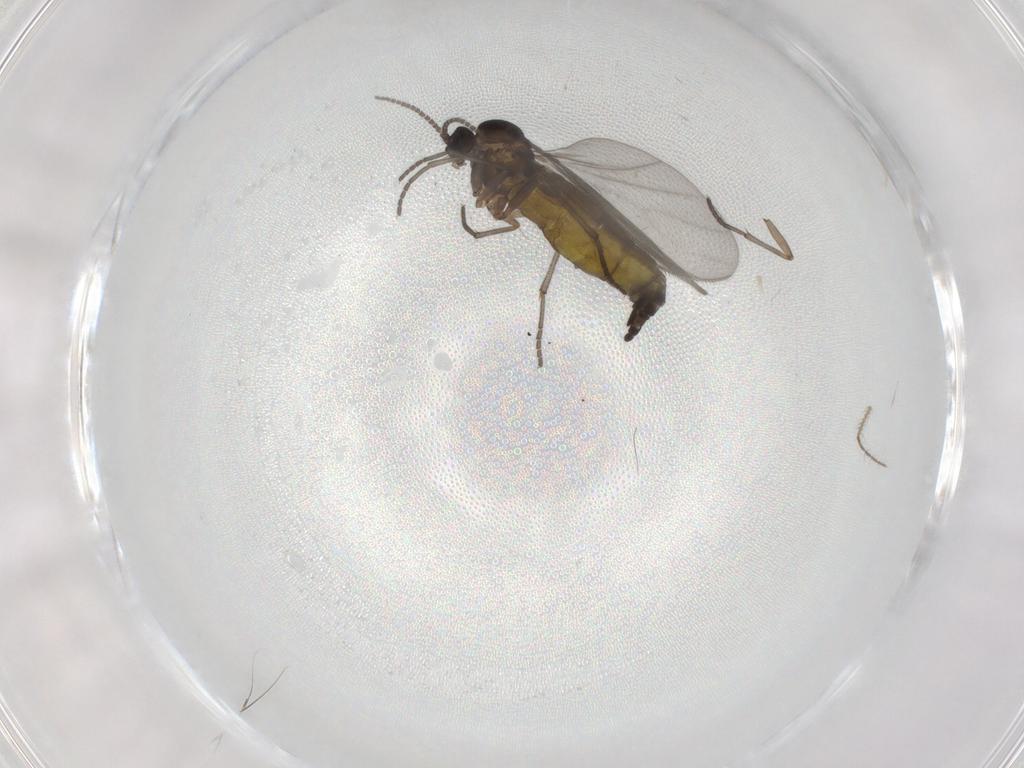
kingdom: Animalia
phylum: Arthropoda
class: Insecta
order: Diptera
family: Sciaridae
